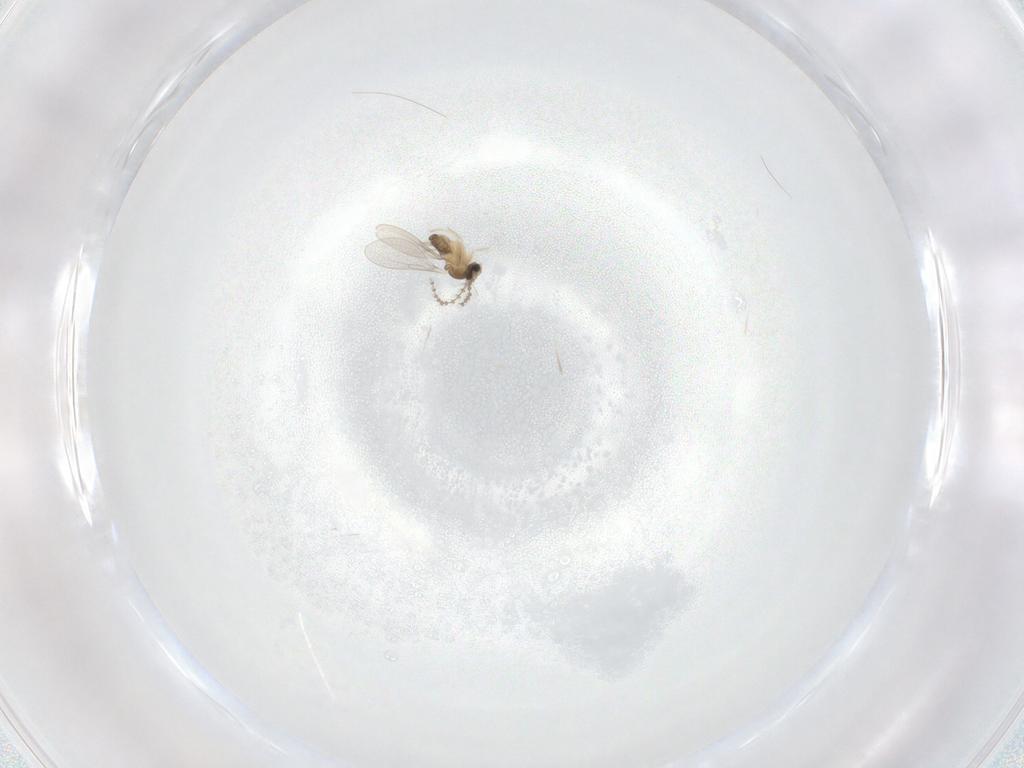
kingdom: Animalia
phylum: Arthropoda
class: Insecta
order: Diptera
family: Cecidomyiidae
